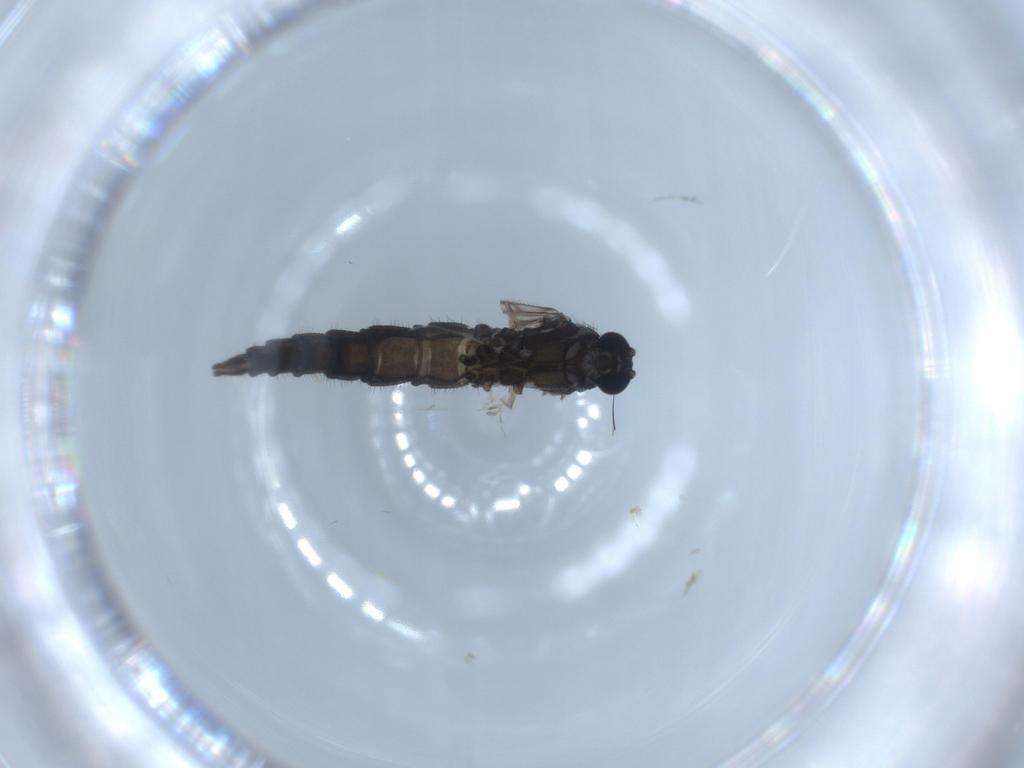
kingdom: Animalia
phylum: Arthropoda
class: Insecta
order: Diptera
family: Sciaridae
